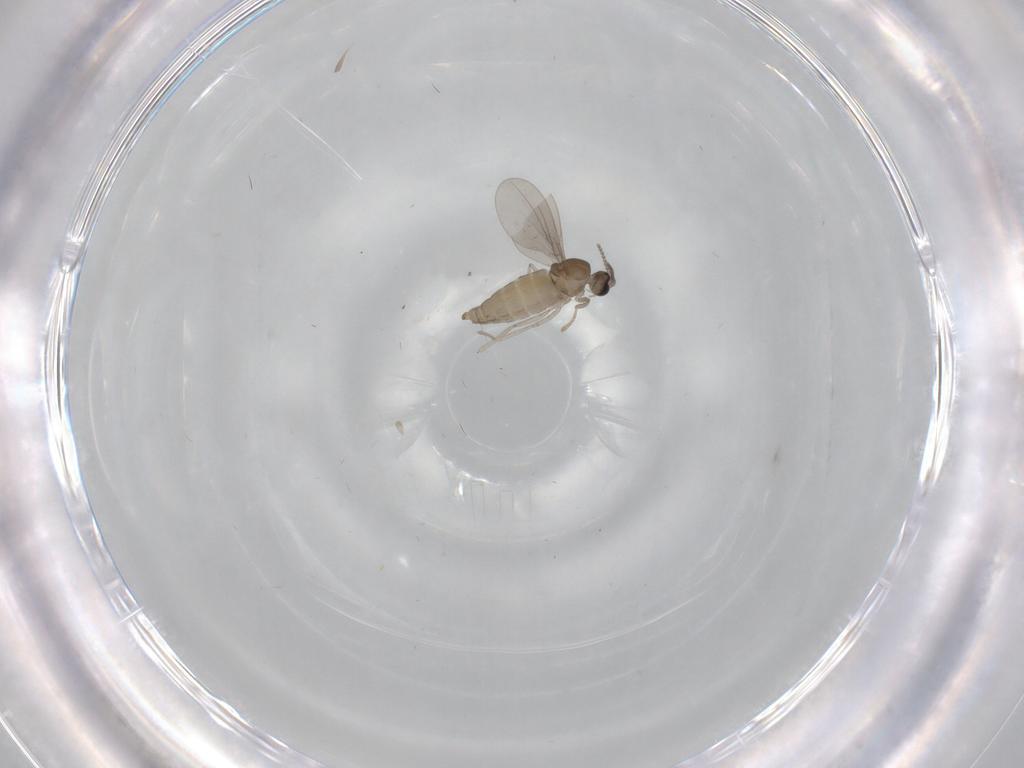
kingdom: Animalia
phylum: Arthropoda
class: Insecta
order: Diptera
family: Cecidomyiidae
